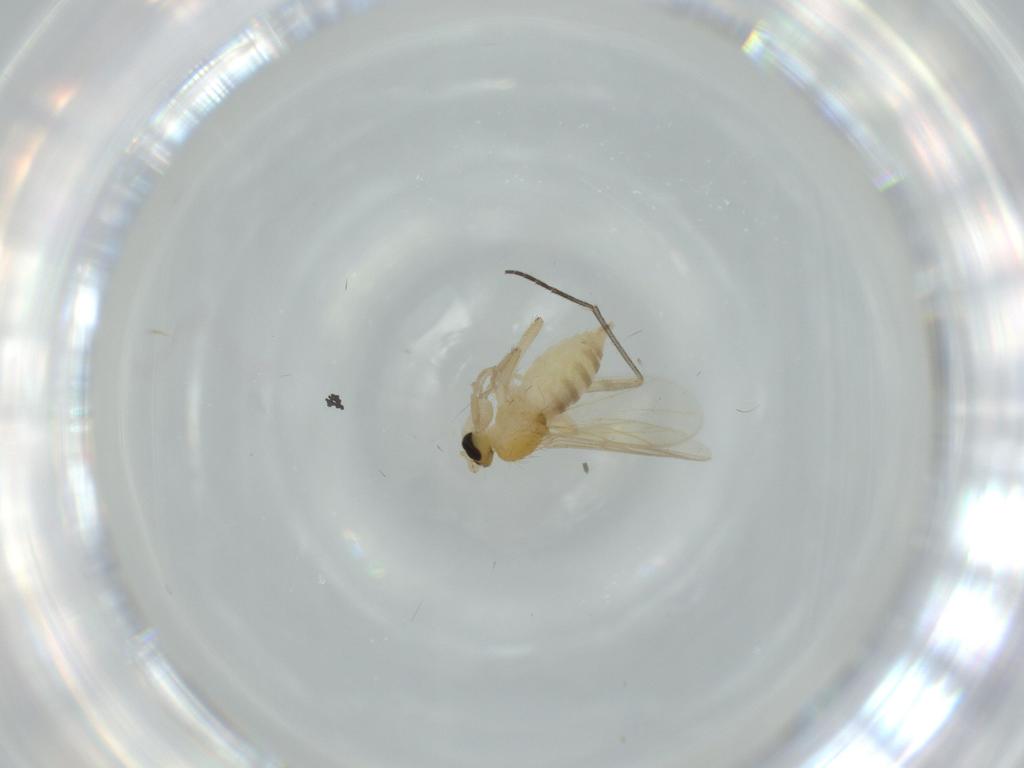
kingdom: Animalia
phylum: Arthropoda
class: Insecta
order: Diptera
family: Hybotidae
